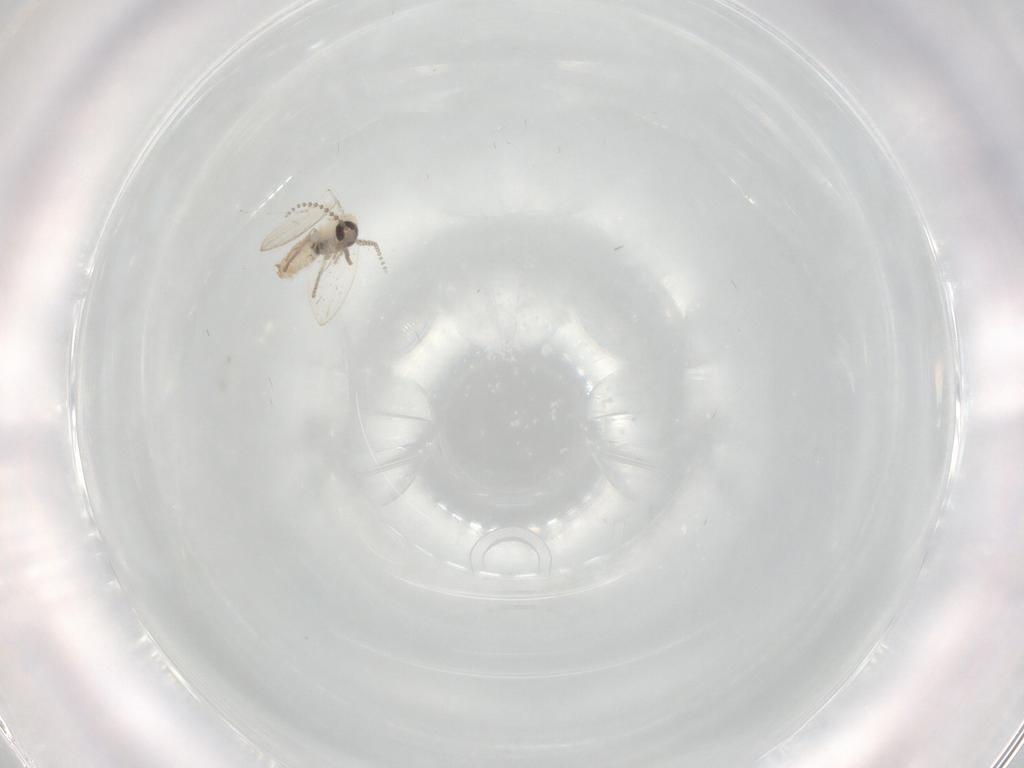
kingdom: Animalia
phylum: Arthropoda
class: Insecta
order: Diptera
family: Psychodidae
